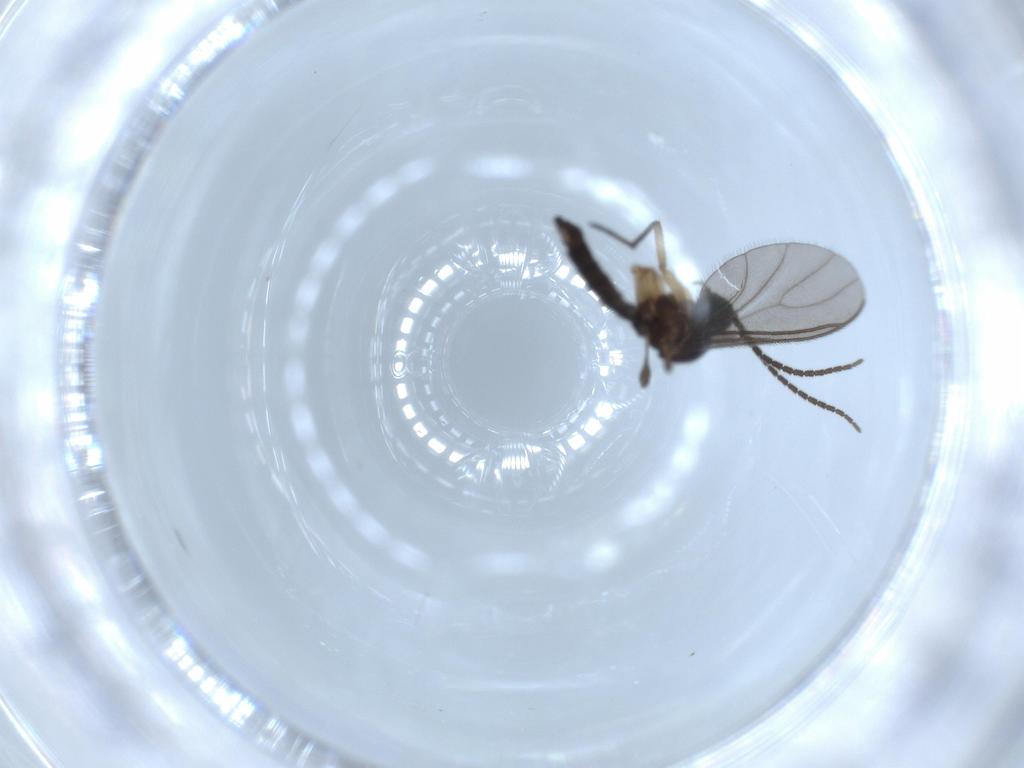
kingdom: Animalia
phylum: Arthropoda
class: Insecta
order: Diptera
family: Sciaridae
